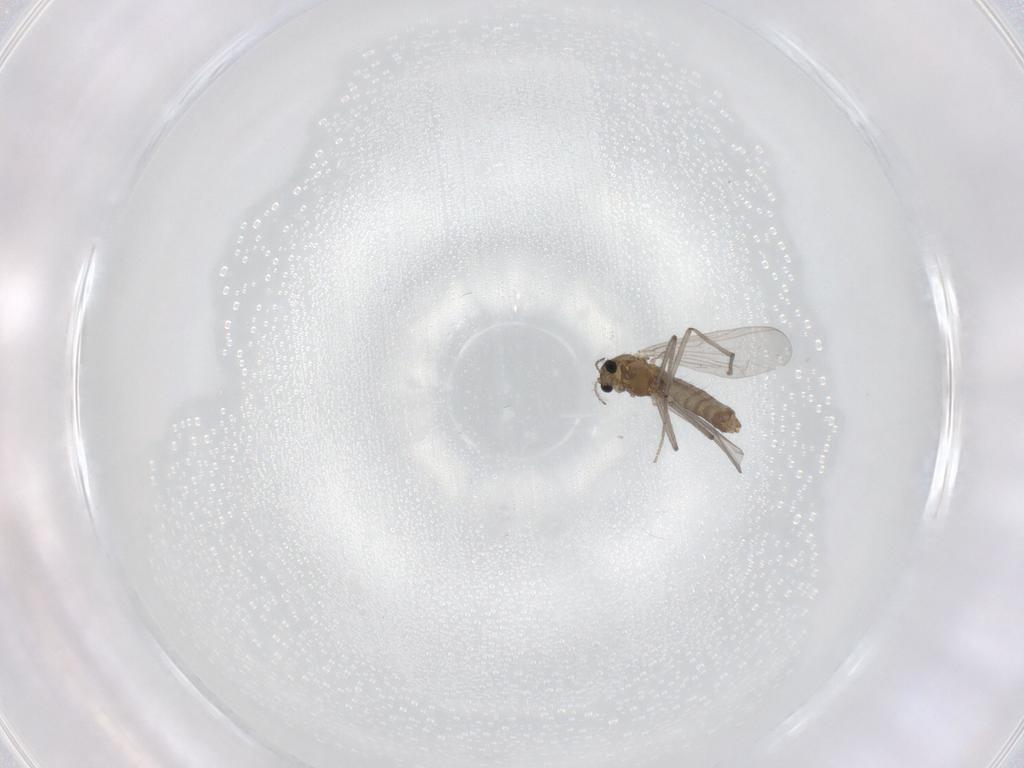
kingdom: Animalia
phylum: Arthropoda
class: Insecta
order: Diptera
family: Chironomidae
